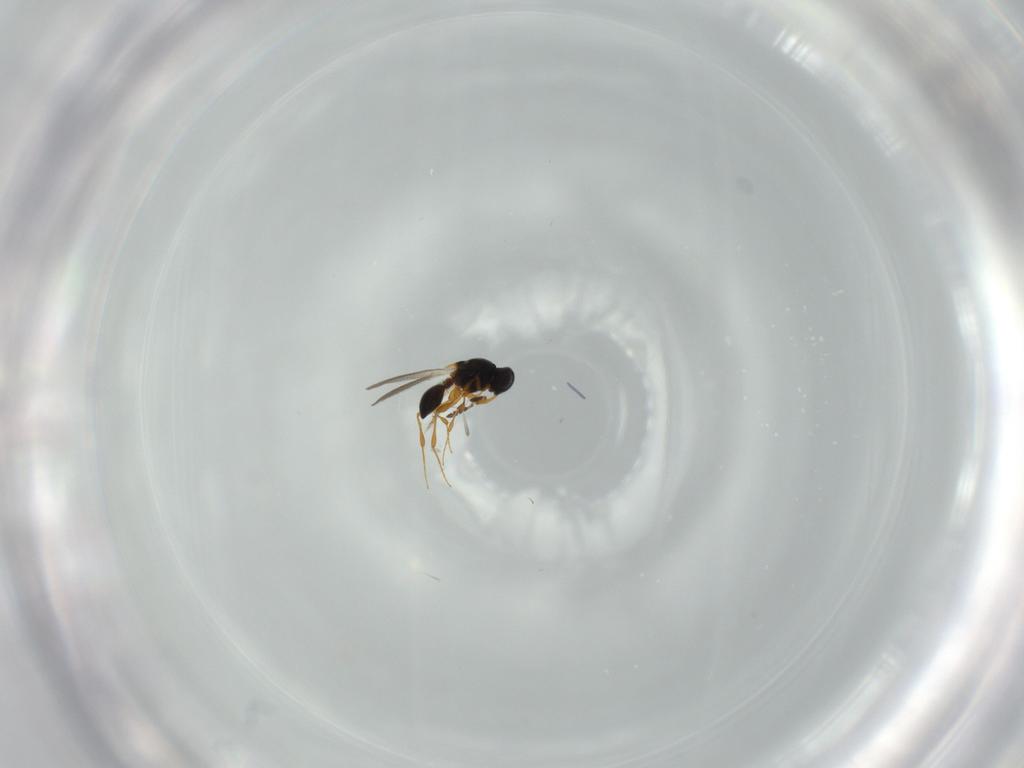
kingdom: Animalia
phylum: Arthropoda
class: Insecta
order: Hymenoptera
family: Platygastridae
